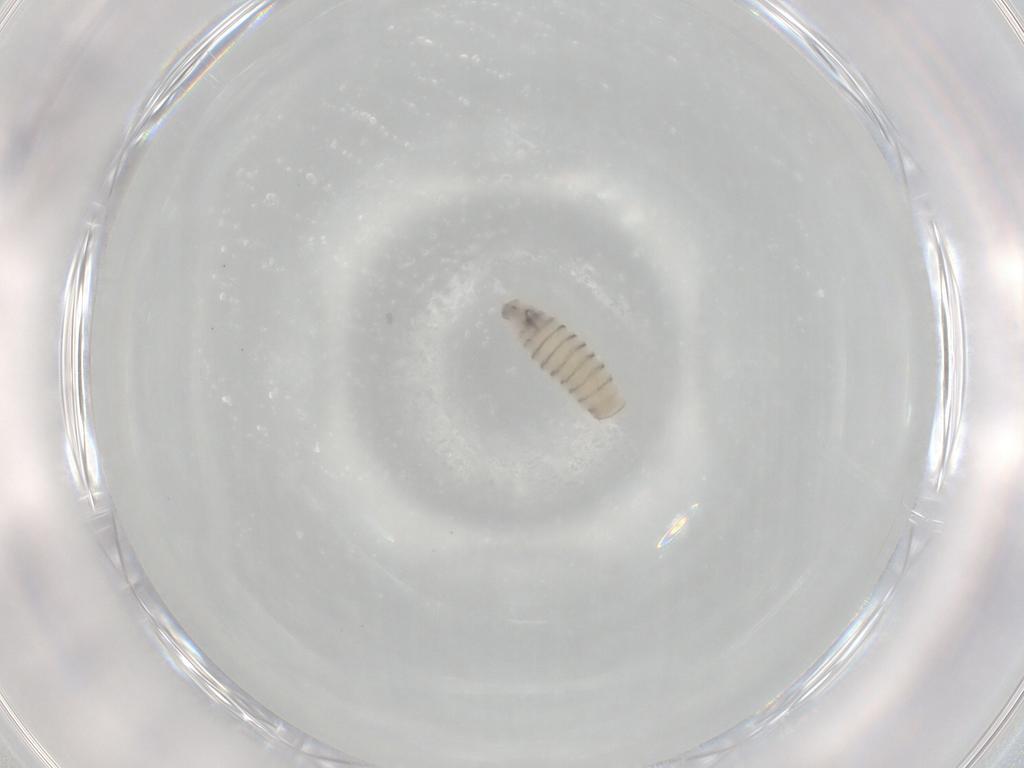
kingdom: Animalia
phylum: Arthropoda
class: Insecta
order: Diptera
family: Sarcophagidae
